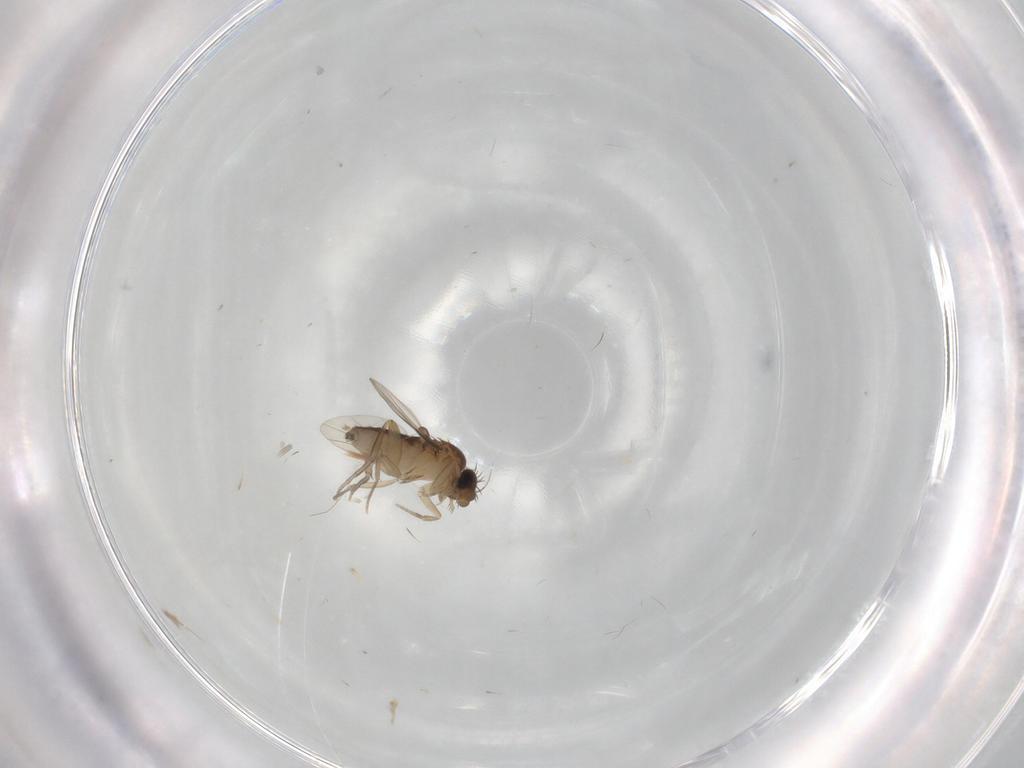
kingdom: Animalia
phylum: Arthropoda
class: Insecta
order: Diptera
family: Phoridae
